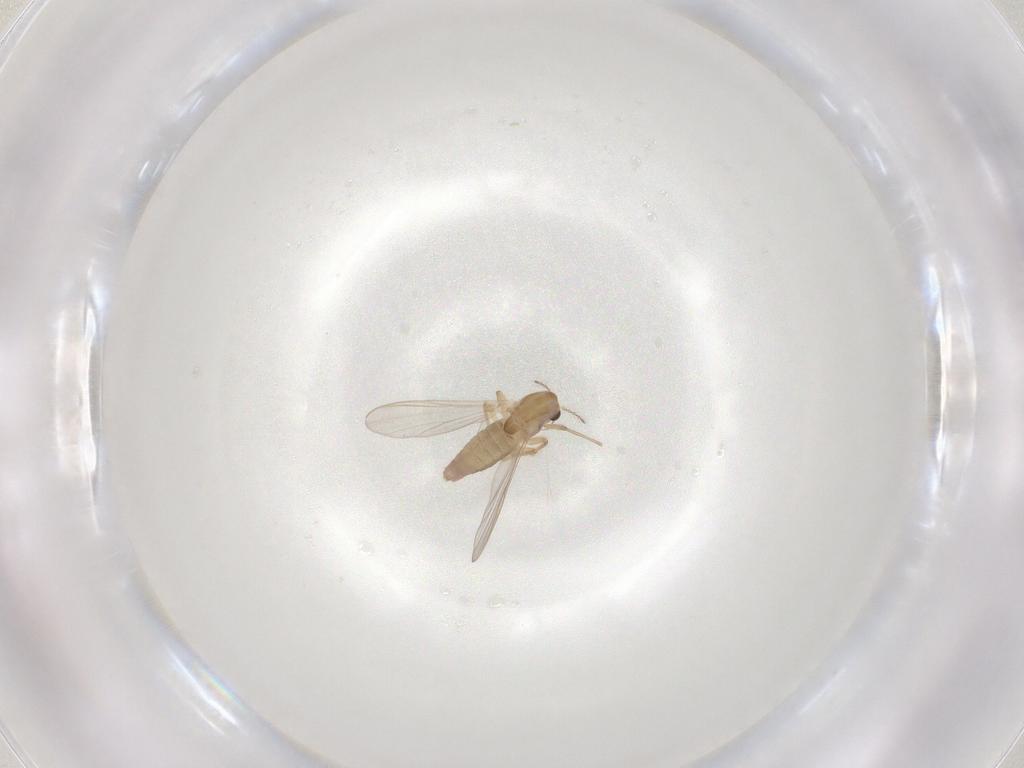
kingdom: Animalia
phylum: Arthropoda
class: Insecta
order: Diptera
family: Chironomidae
